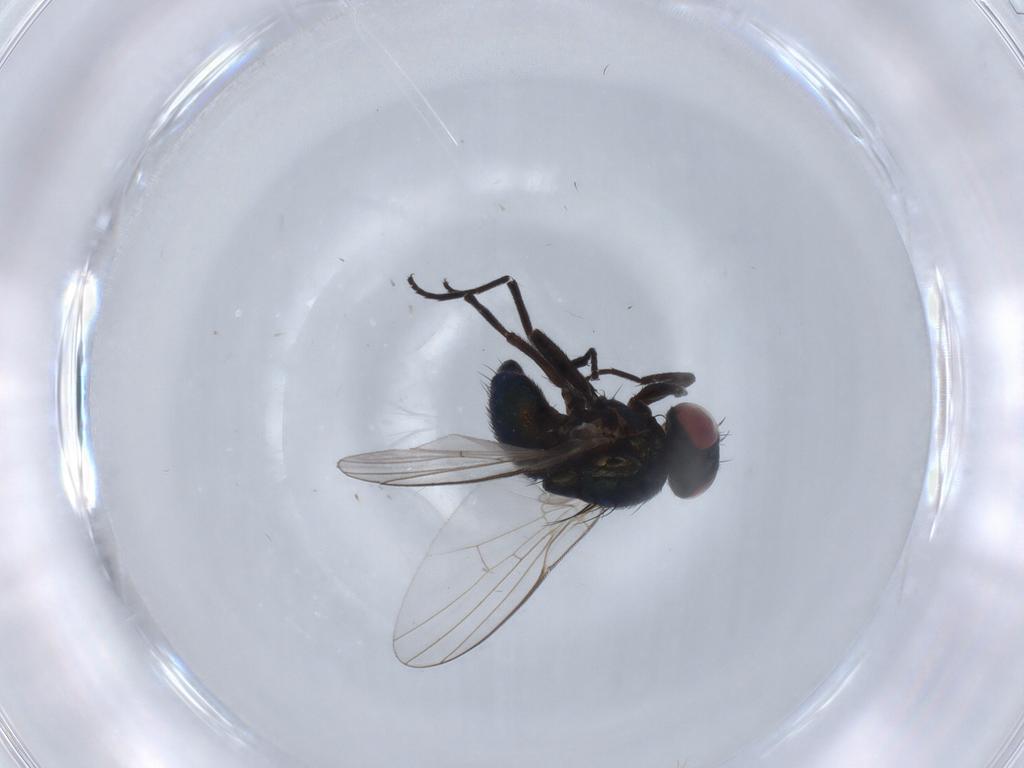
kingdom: Animalia
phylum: Arthropoda
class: Insecta
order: Diptera
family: Agromyzidae
